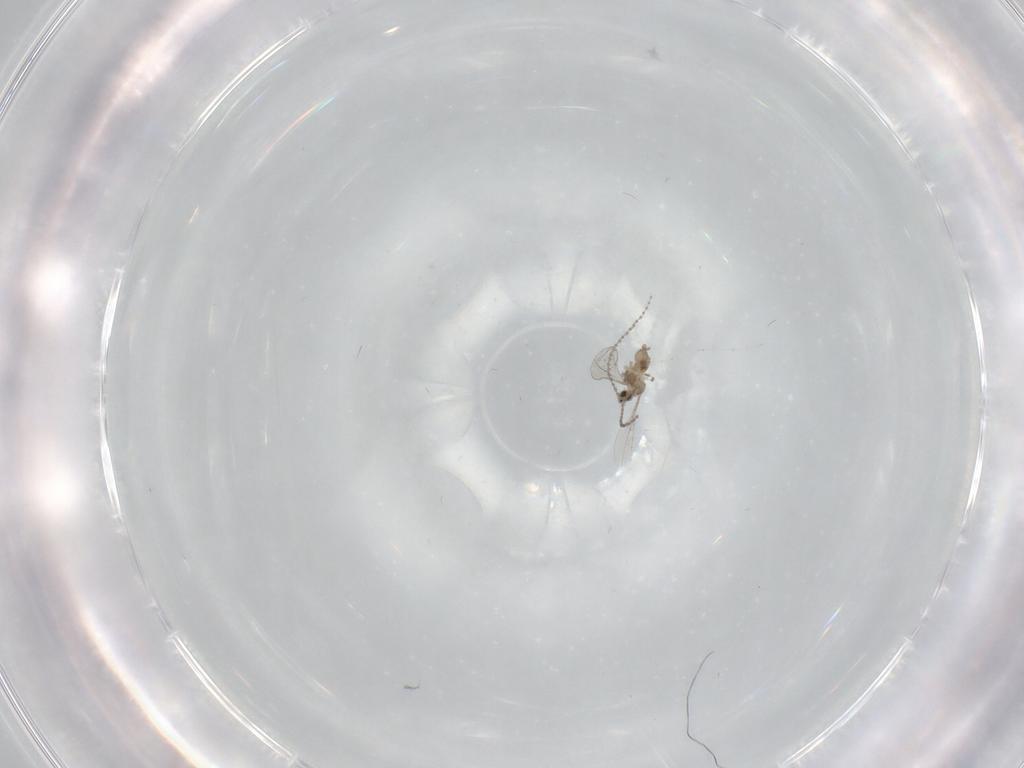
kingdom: Animalia
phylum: Arthropoda
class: Insecta
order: Diptera
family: Cecidomyiidae
